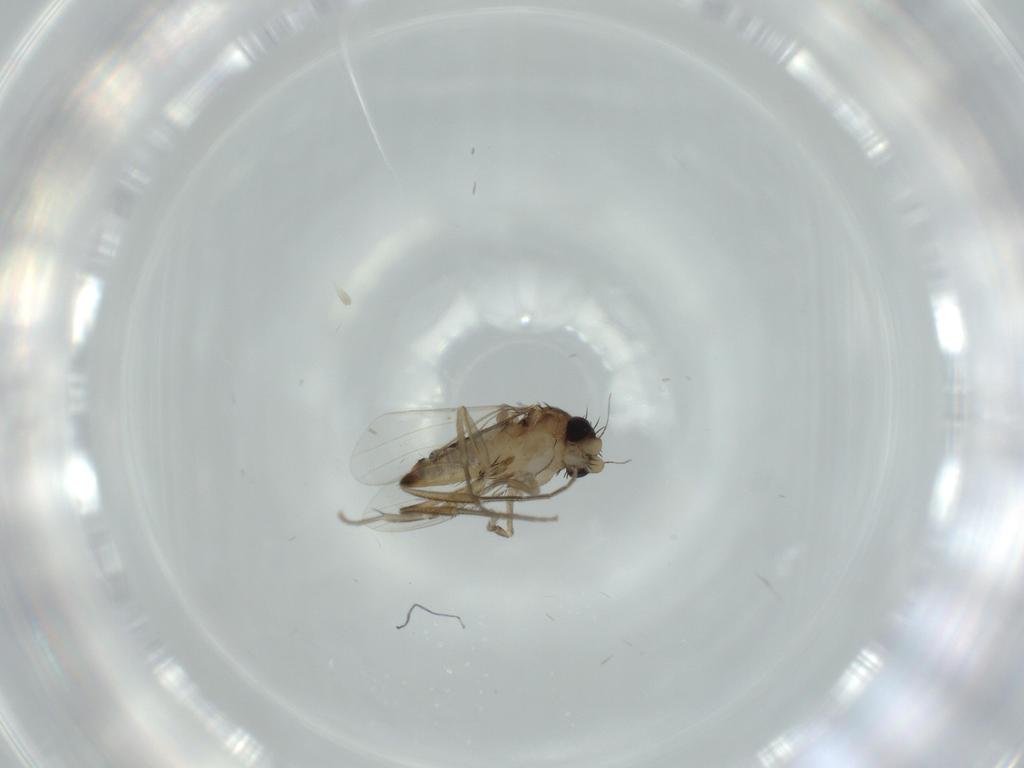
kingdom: Animalia
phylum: Arthropoda
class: Insecta
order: Diptera
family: Phoridae
